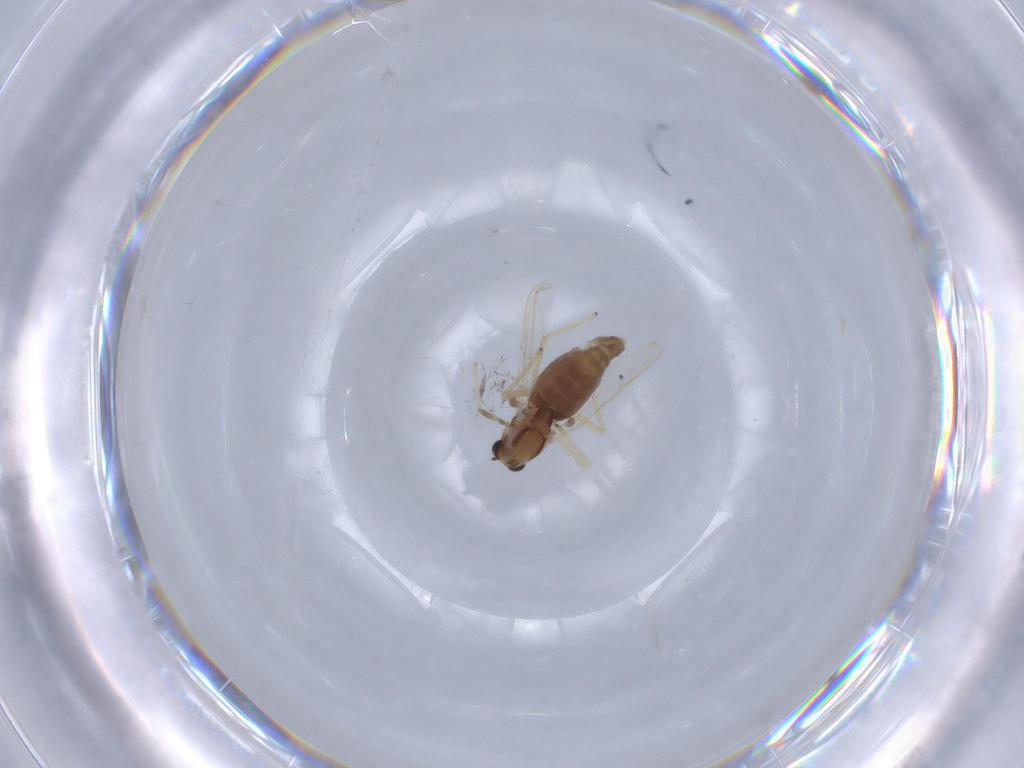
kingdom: Animalia
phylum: Arthropoda
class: Insecta
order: Diptera
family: Chironomidae
